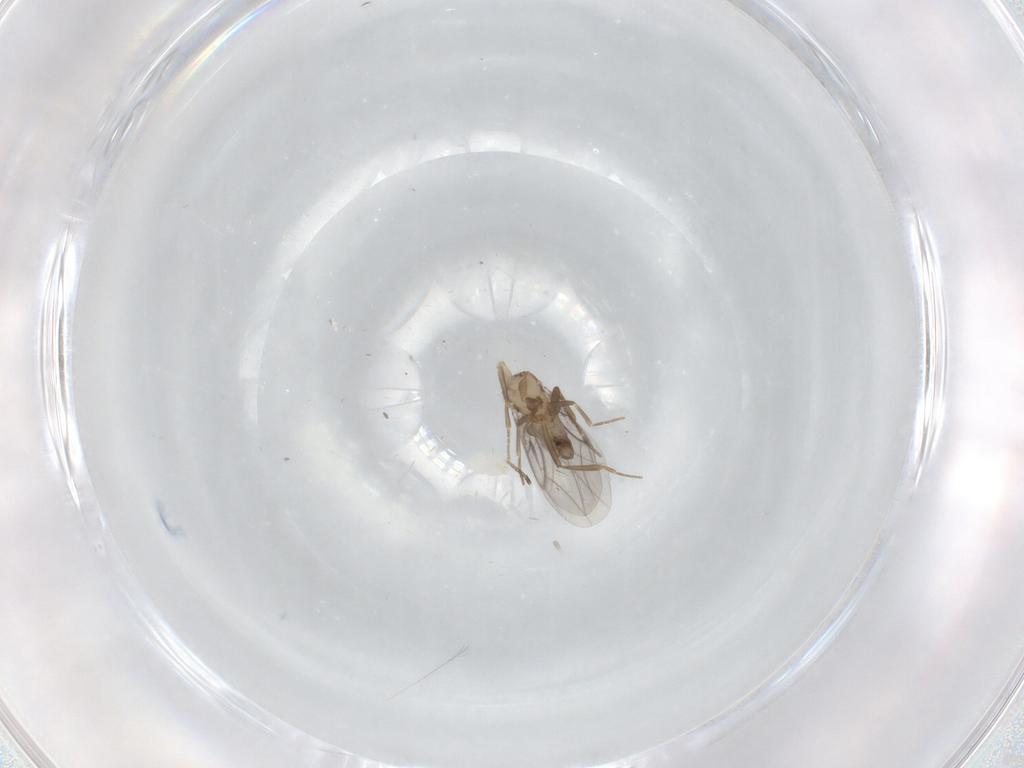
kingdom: Animalia
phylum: Arthropoda
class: Insecta
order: Diptera
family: Phoridae
